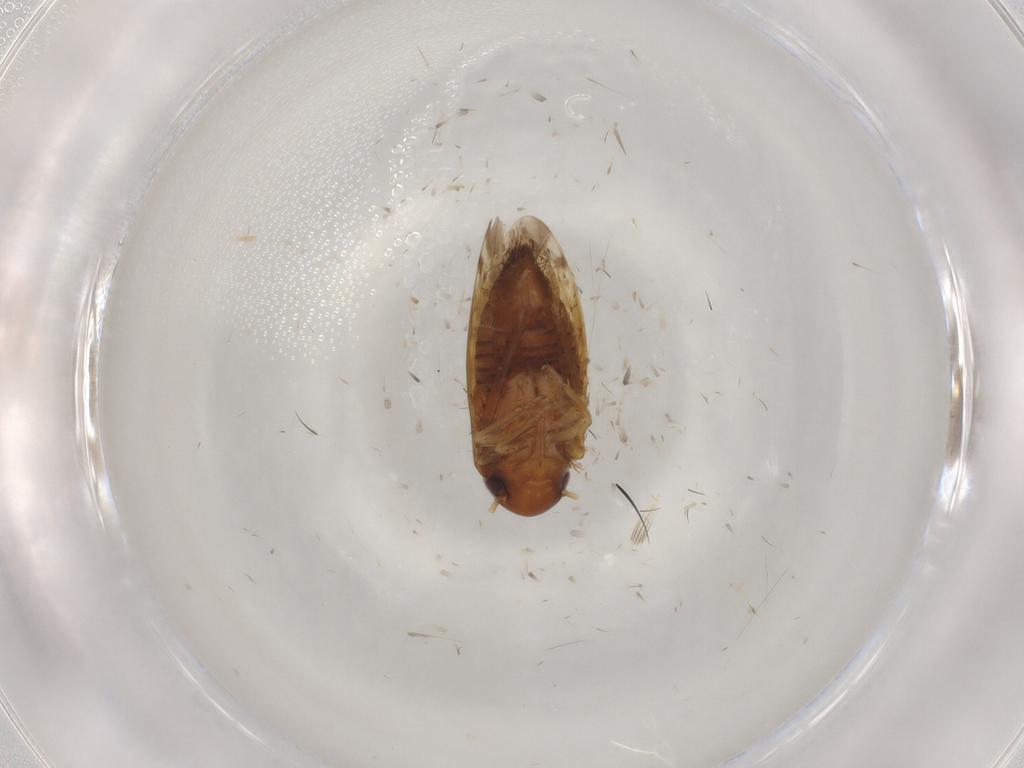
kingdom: Animalia
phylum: Arthropoda
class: Insecta
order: Hemiptera
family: Cicadellidae
